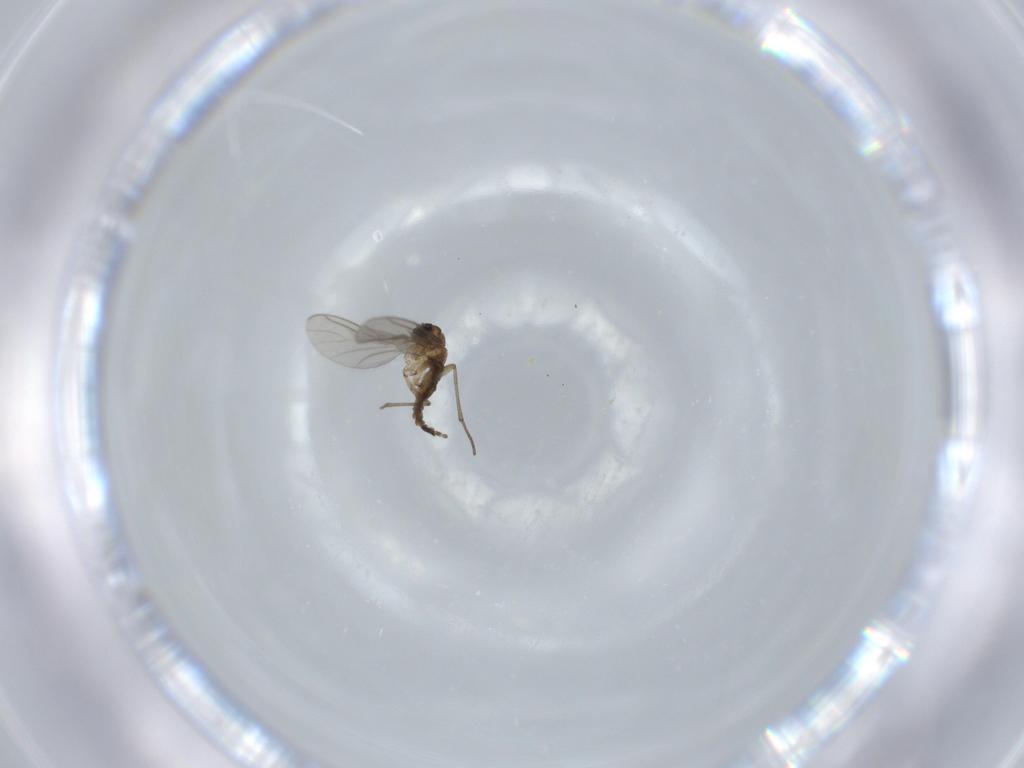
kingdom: Animalia
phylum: Arthropoda
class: Insecta
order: Diptera
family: Sciaridae
